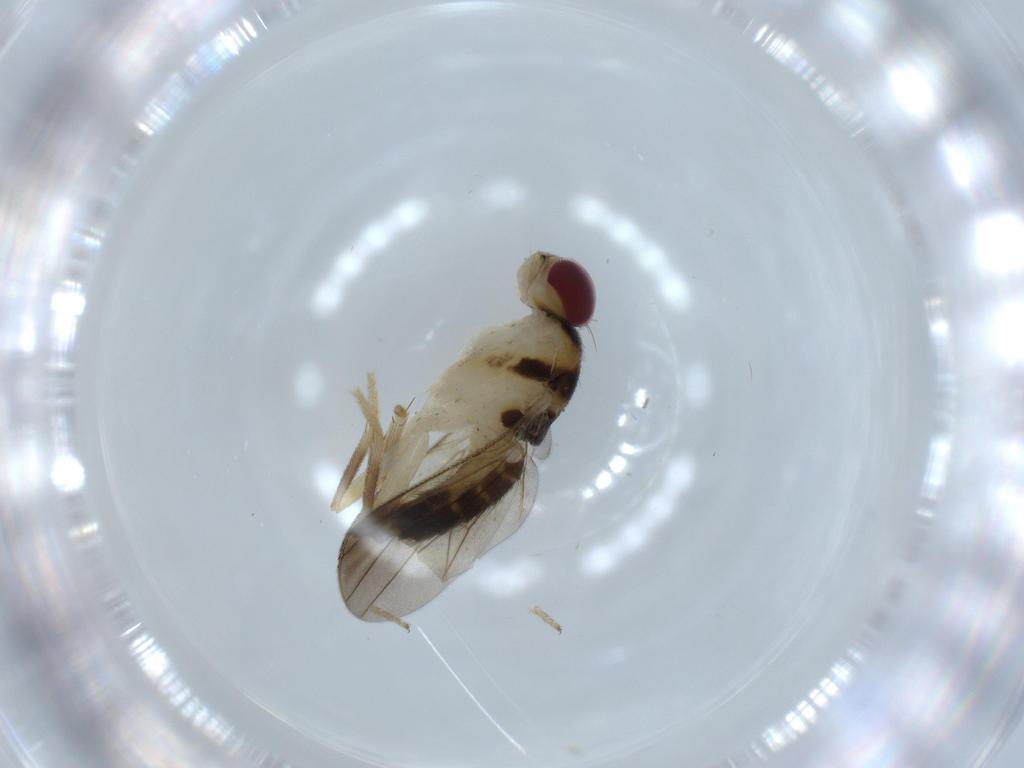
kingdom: Animalia
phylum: Arthropoda
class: Insecta
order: Diptera
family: Clusiidae
